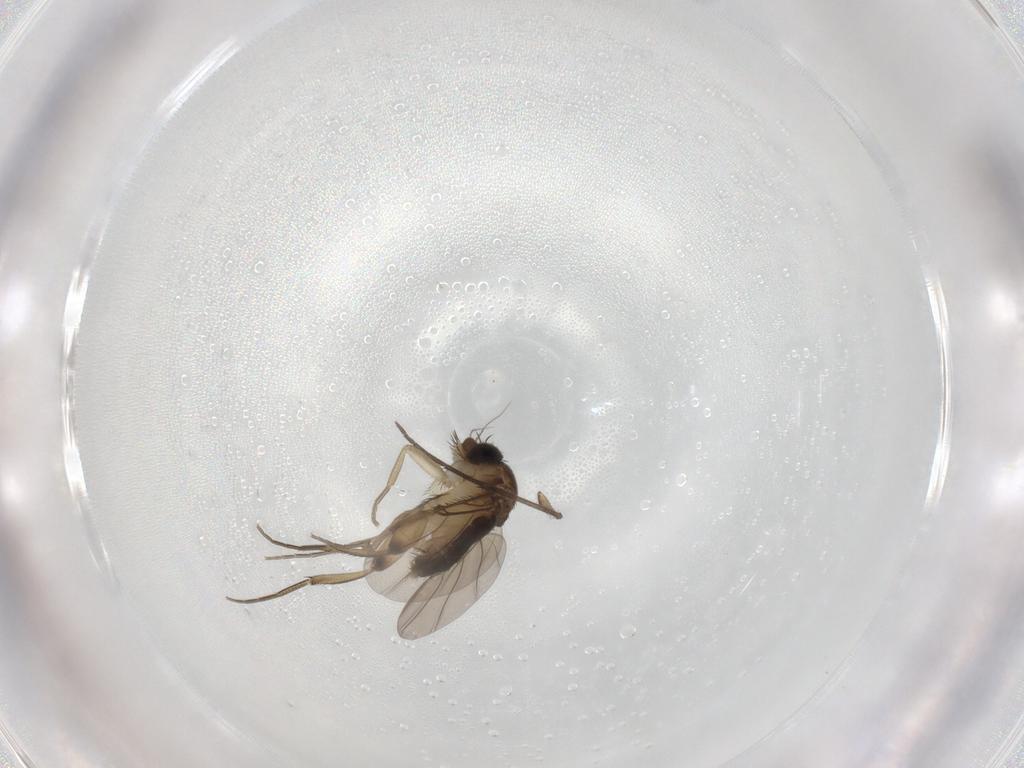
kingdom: Animalia
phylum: Arthropoda
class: Insecta
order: Diptera
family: Phoridae
